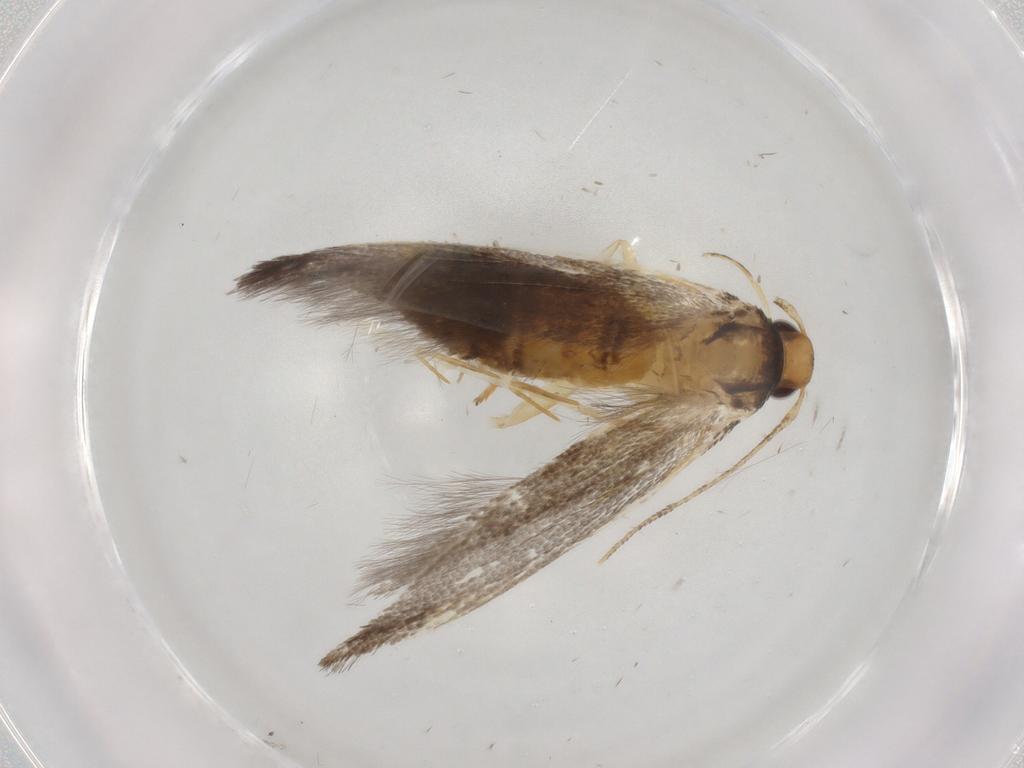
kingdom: Animalia
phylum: Arthropoda
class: Insecta
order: Lepidoptera
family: Cosmopterigidae
